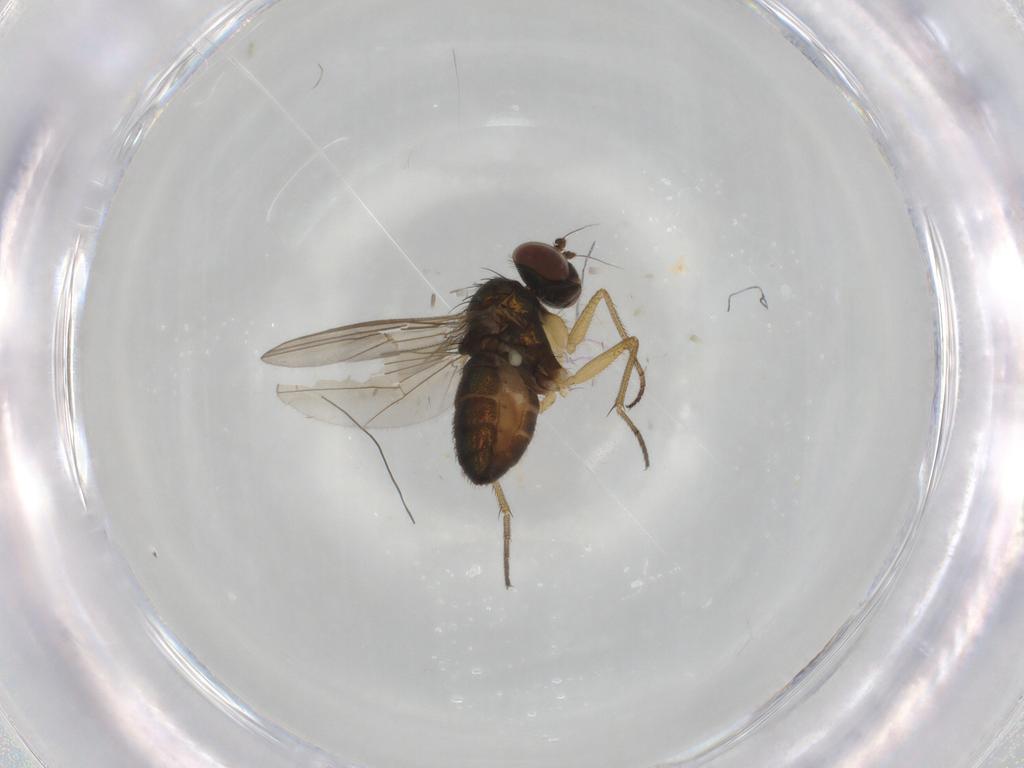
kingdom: Animalia
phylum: Arthropoda
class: Insecta
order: Diptera
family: Dolichopodidae
